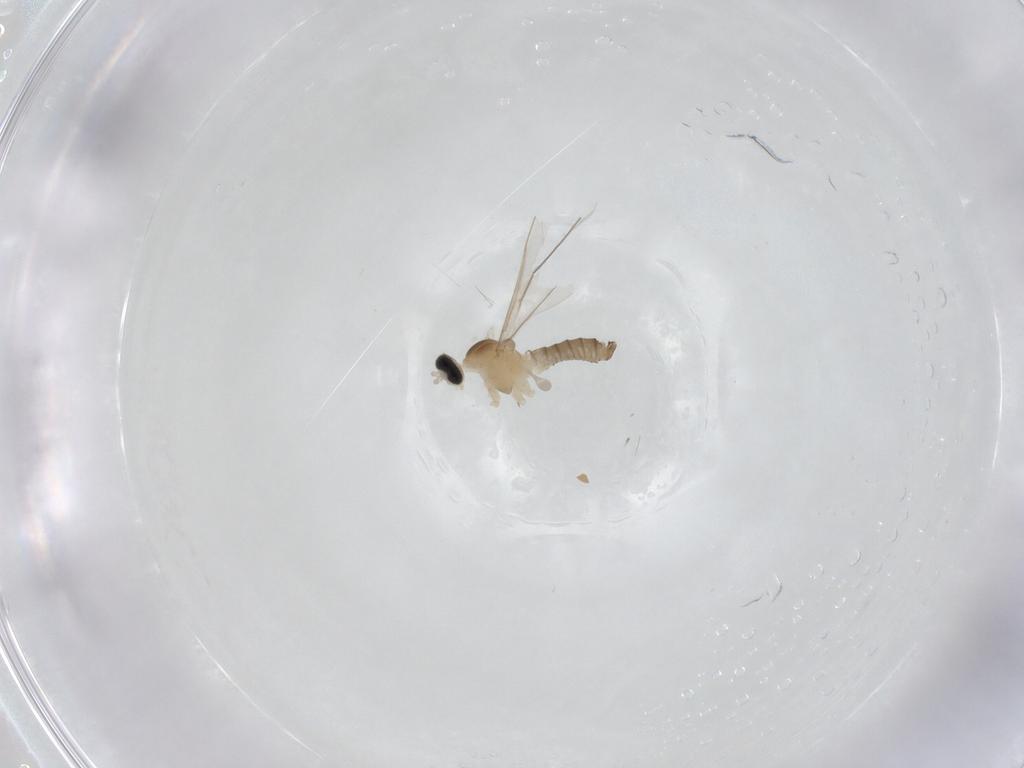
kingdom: Animalia
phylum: Arthropoda
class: Insecta
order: Diptera
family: Cecidomyiidae
